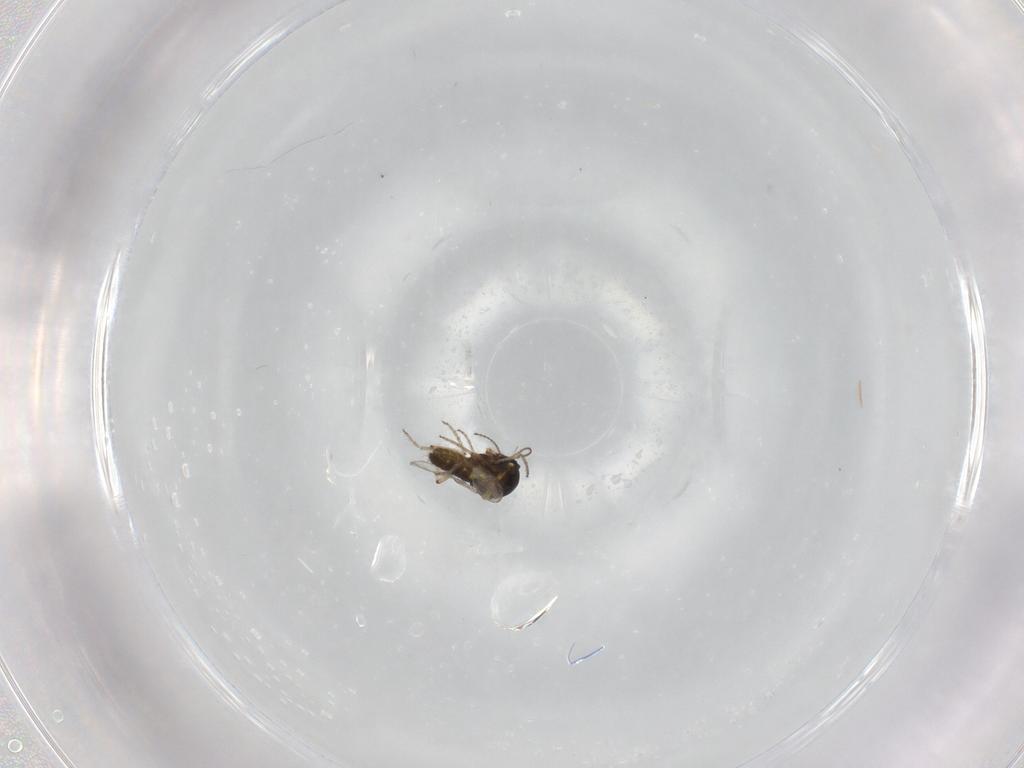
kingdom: Animalia
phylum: Arthropoda
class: Insecta
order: Diptera
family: Ceratopogonidae
